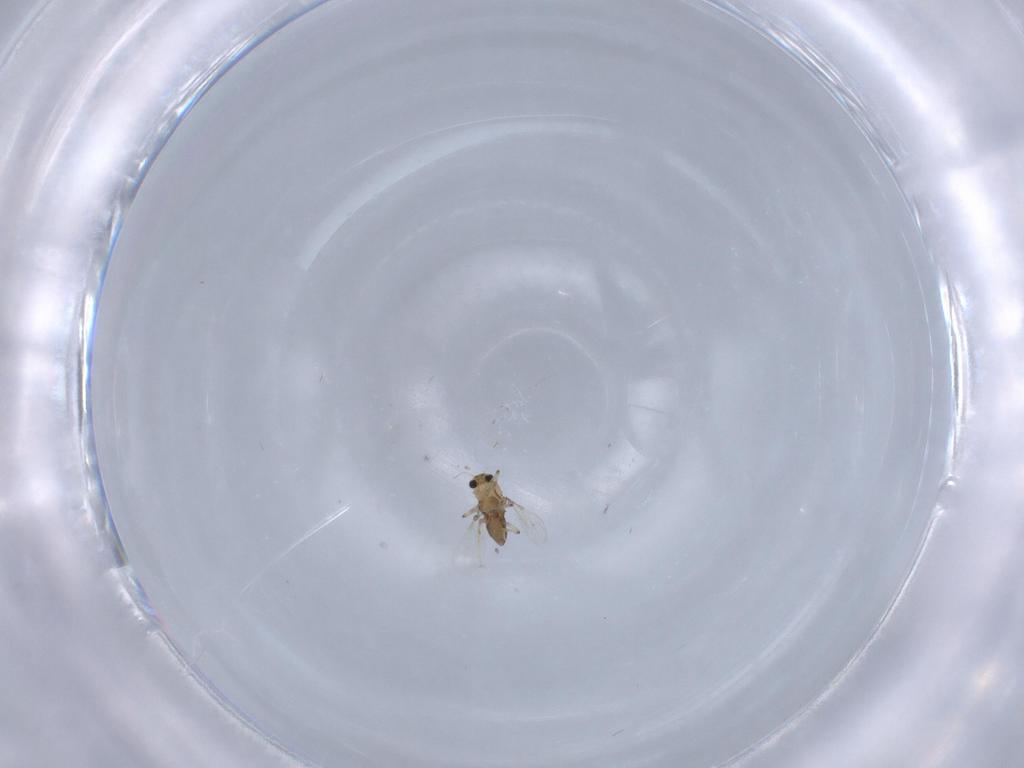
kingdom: Animalia
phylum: Arthropoda
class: Insecta
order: Diptera
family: Chironomidae
